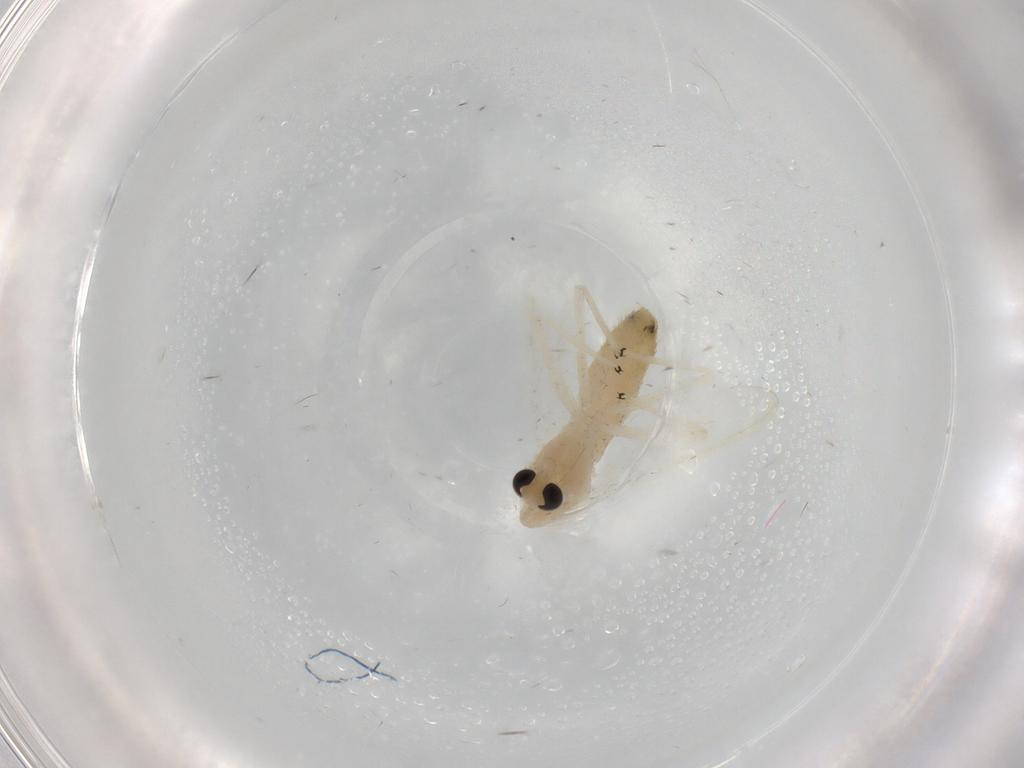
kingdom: Animalia
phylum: Arthropoda
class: Insecta
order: Diptera
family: Chironomidae
